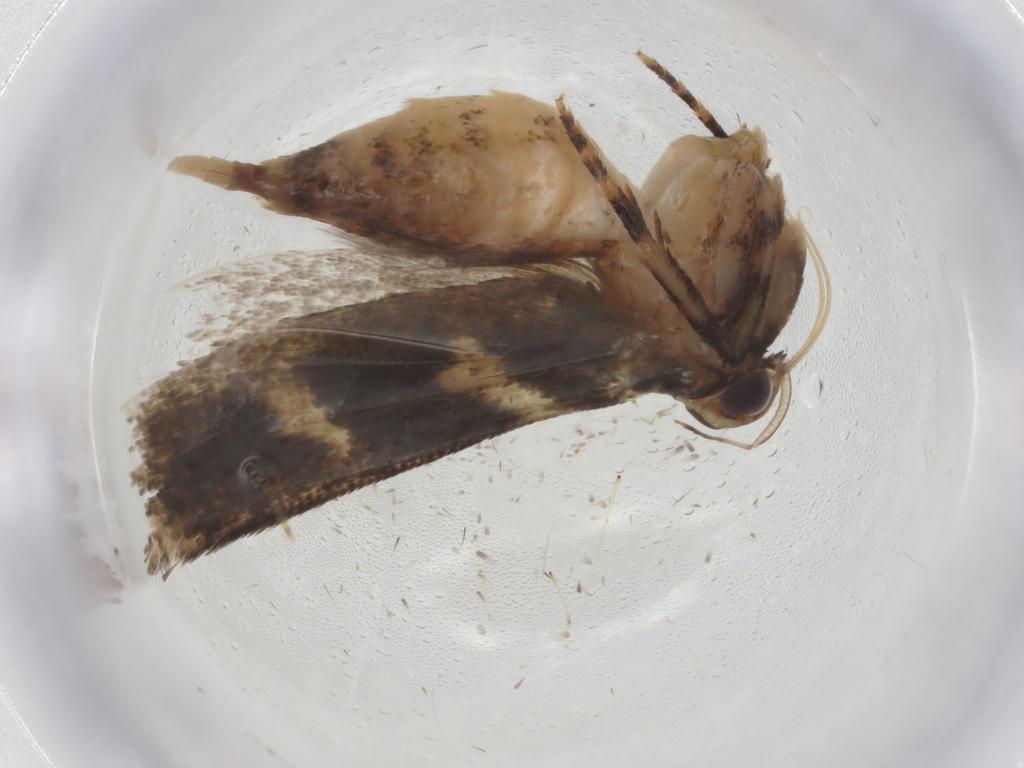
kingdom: Animalia
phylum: Arthropoda
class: Insecta
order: Lepidoptera
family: Gelechiidae
